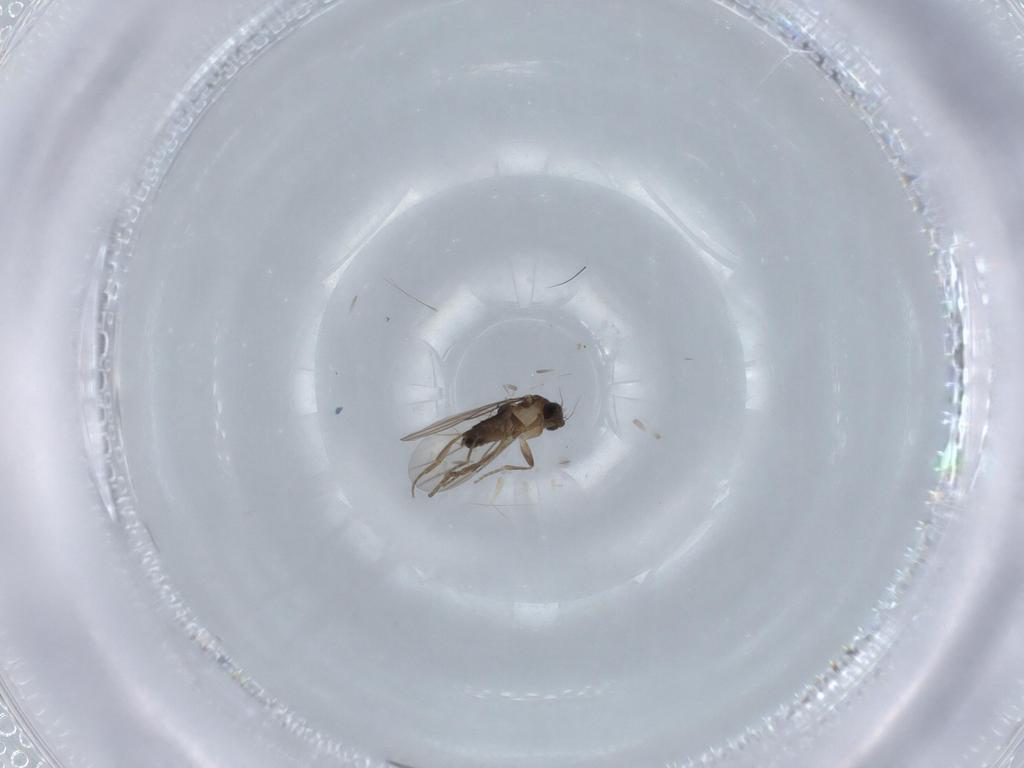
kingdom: Animalia
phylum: Arthropoda
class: Insecta
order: Diptera
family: Phoridae
